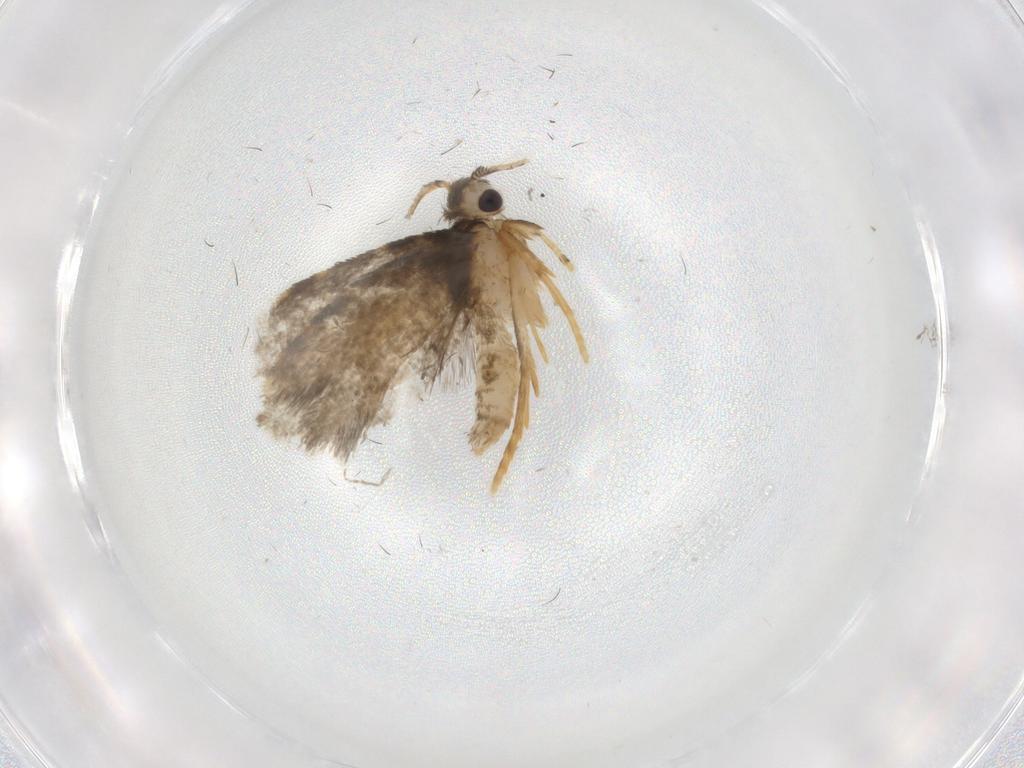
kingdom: Animalia
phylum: Arthropoda
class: Insecta
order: Lepidoptera
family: Psychidae
